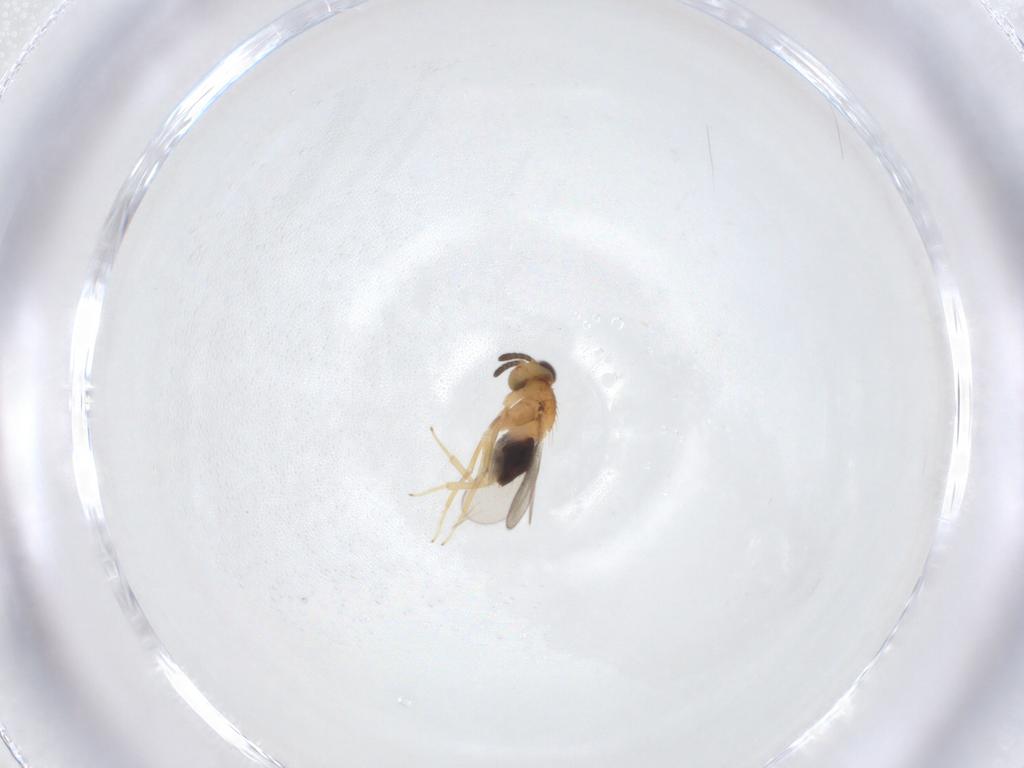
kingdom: Animalia
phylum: Arthropoda
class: Insecta
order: Hymenoptera
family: Aphelinidae
